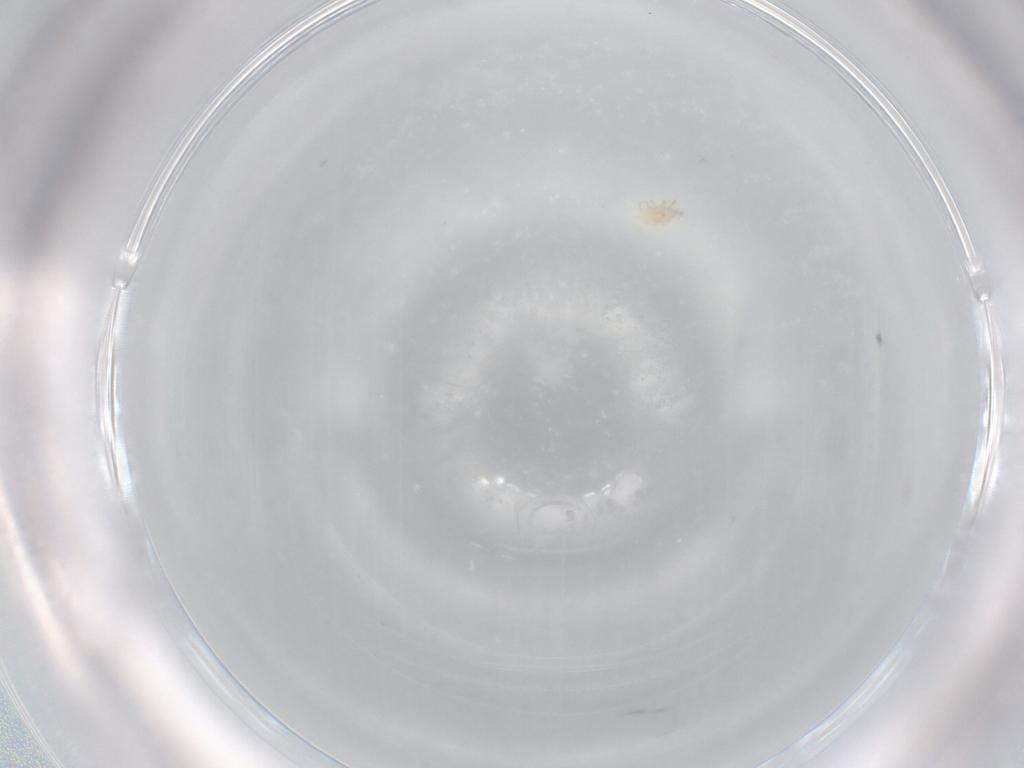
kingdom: Animalia
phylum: Arthropoda
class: Arachnida
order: Mesostigmata
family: Phytoseiidae
